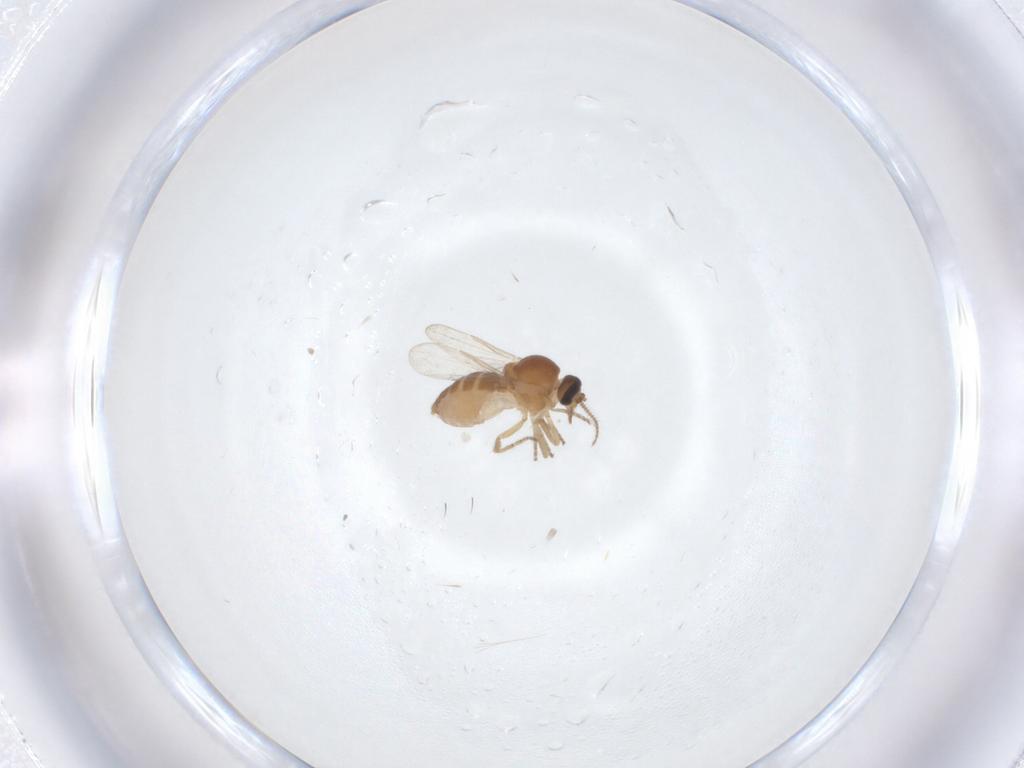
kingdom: Animalia
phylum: Arthropoda
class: Insecta
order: Diptera
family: Ceratopogonidae
